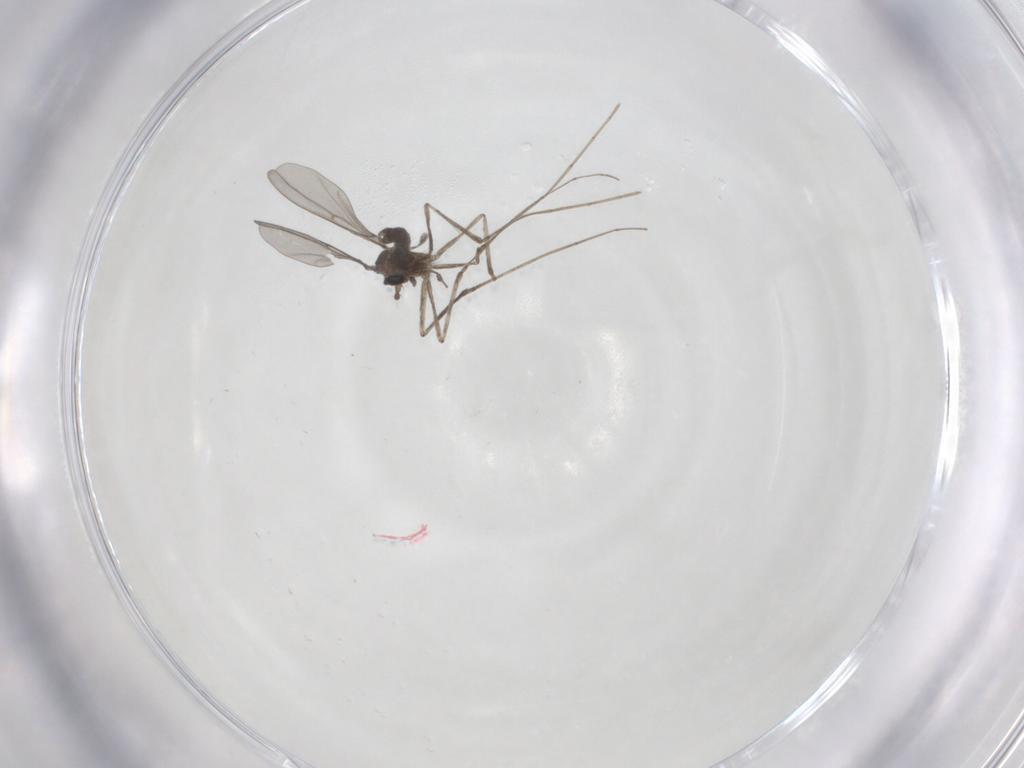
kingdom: Animalia
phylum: Arthropoda
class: Insecta
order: Diptera
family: Cecidomyiidae
